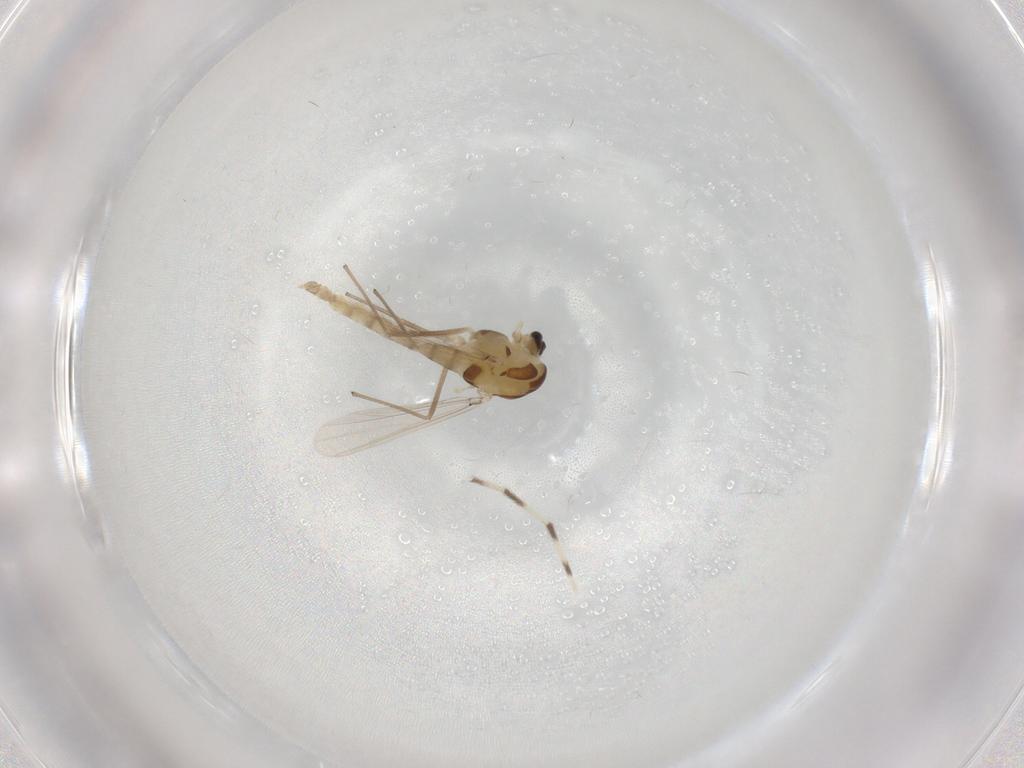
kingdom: Animalia
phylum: Arthropoda
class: Insecta
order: Diptera
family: Chironomidae
